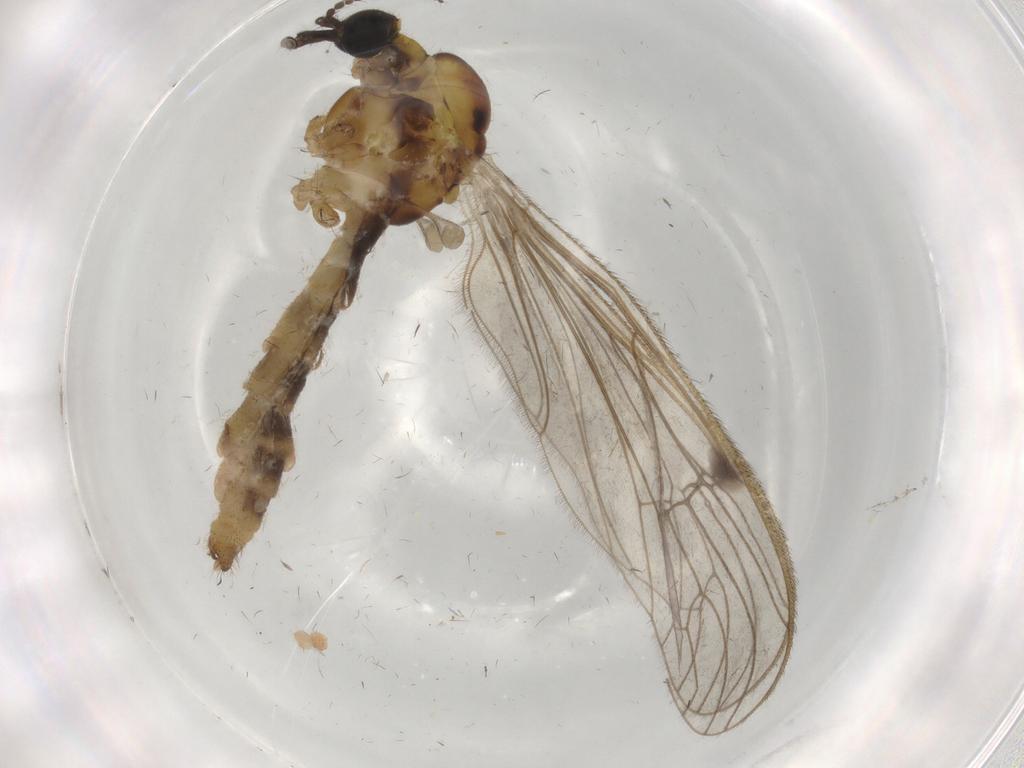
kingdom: Animalia
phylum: Arthropoda
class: Insecta
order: Diptera
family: Limoniidae
